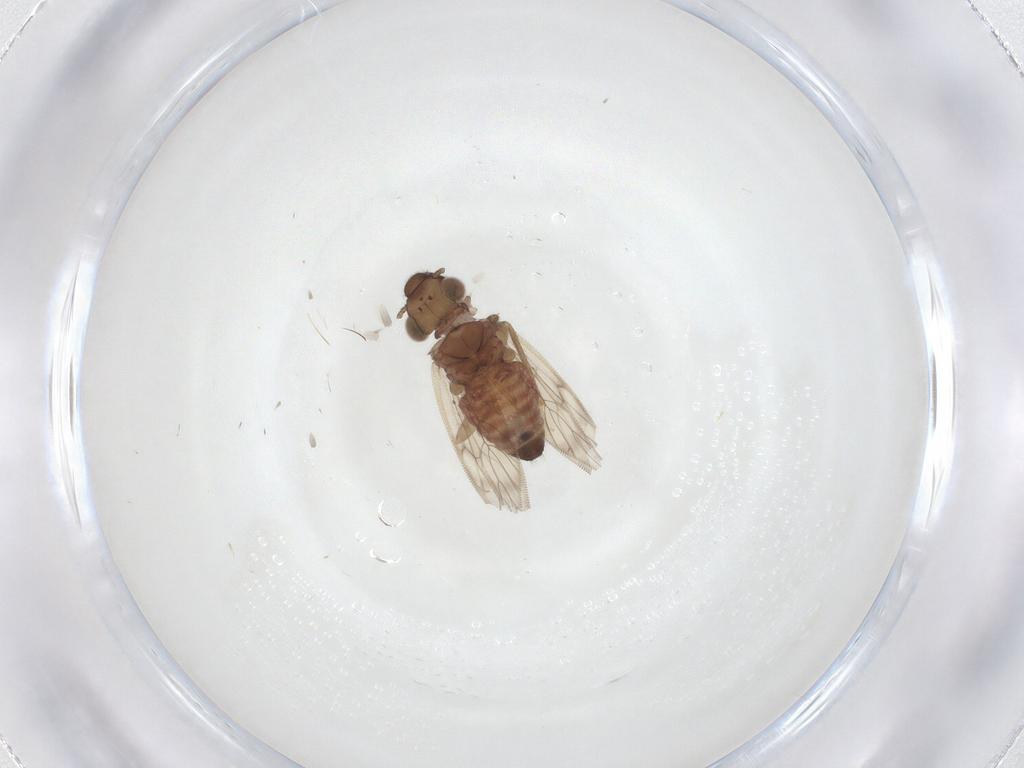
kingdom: Animalia
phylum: Arthropoda
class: Insecta
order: Psocodea
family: Lepidopsocidae
